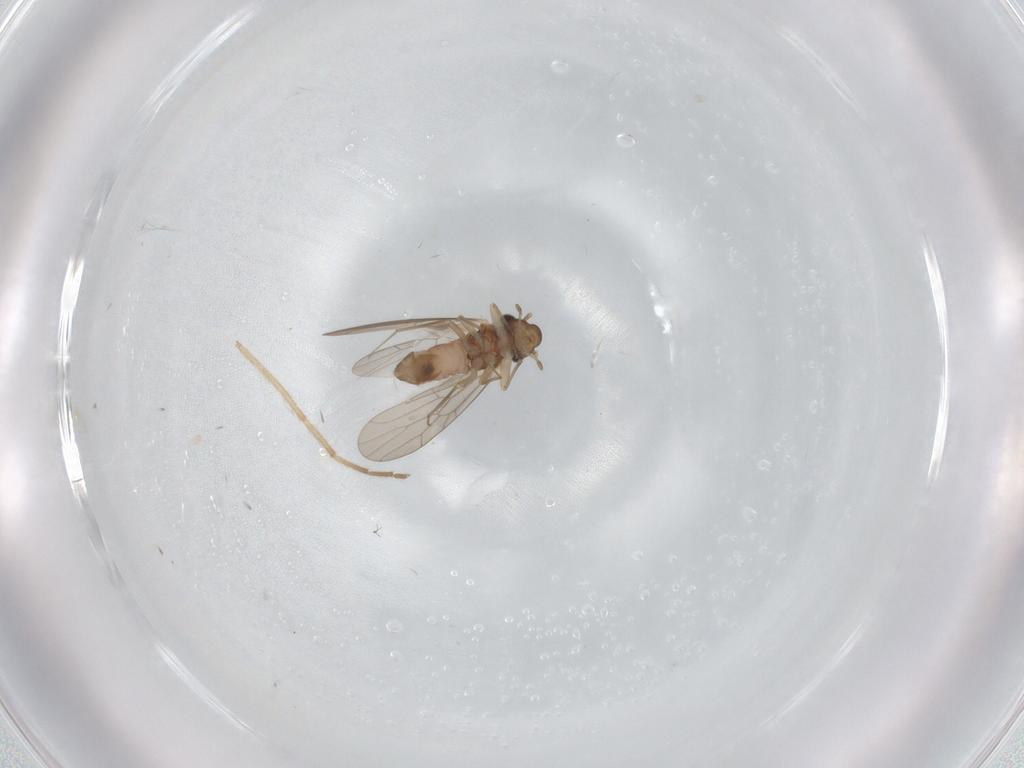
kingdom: Animalia
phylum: Arthropoda
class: Insecta
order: Psocodea
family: Lepidopsocidae
